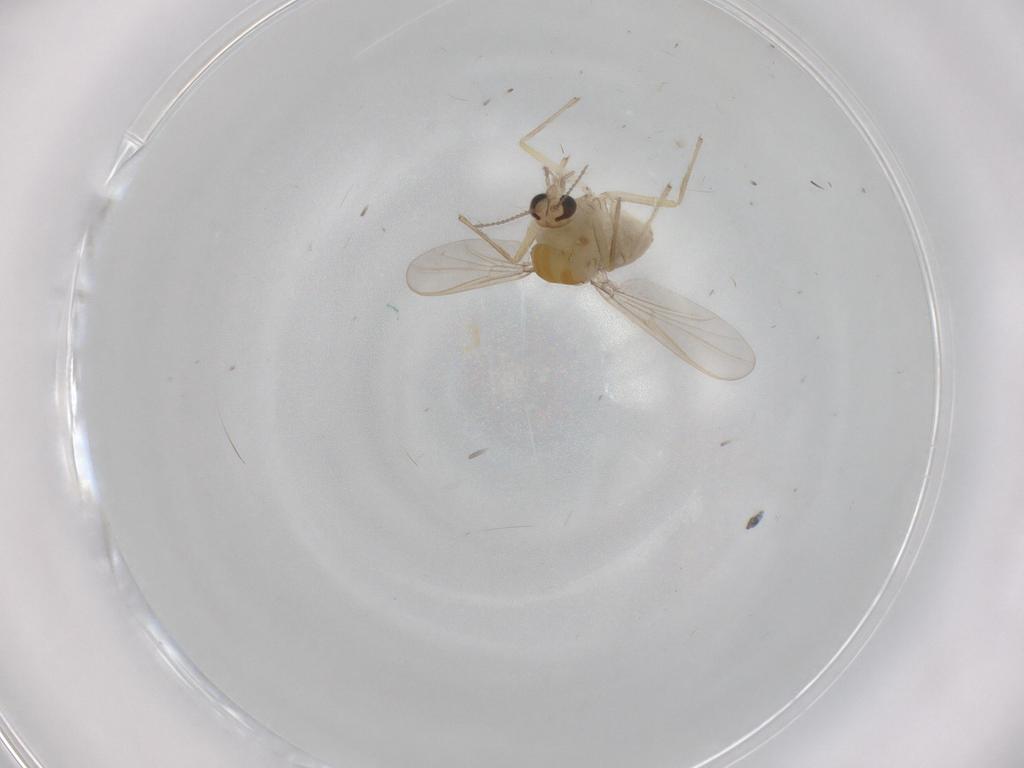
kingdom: Animalia
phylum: Arthropoda
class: Insecta
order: Diptera
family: Chironomidae
